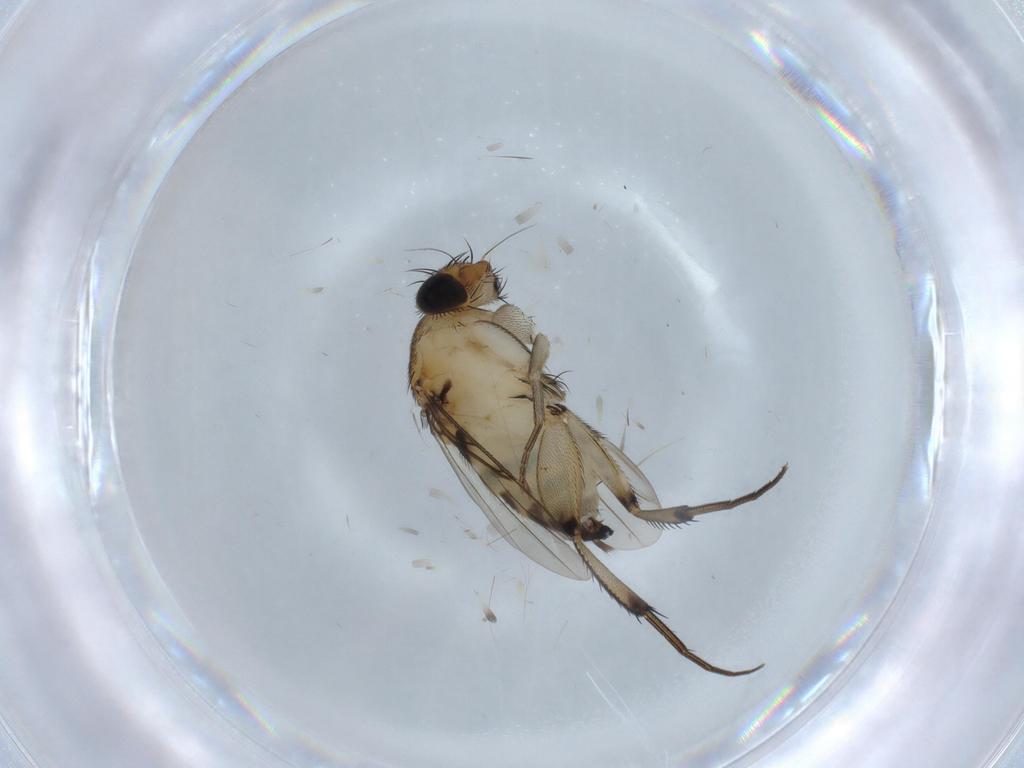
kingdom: Animalia
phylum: Arthropoda
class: Insecta
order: Diptera
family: Phoridae
